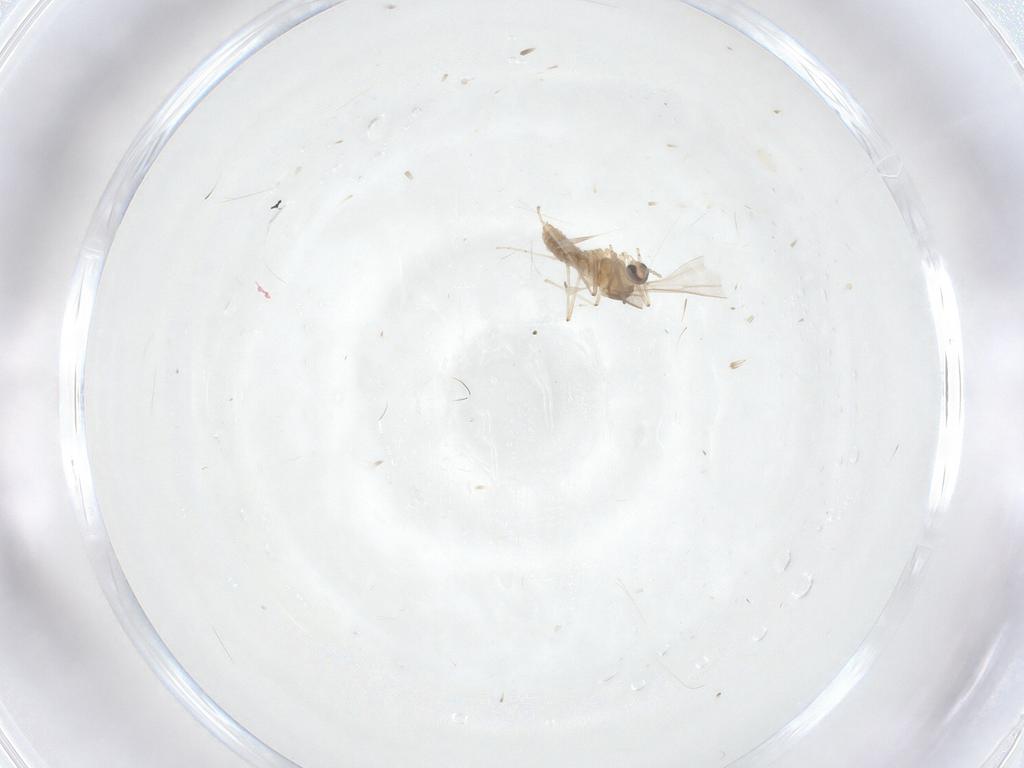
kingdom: Animalia
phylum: Arthropoda
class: Insecta
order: Diptera
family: Cecidomyiidae
